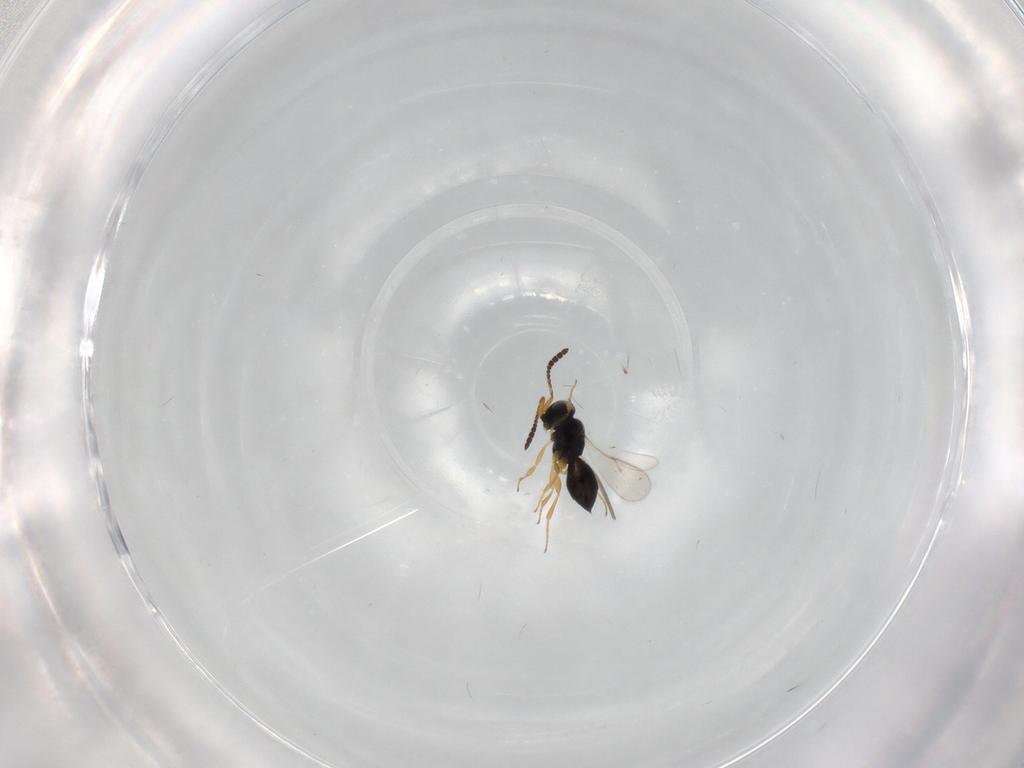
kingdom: Animalia
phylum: Arthropoda
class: Insecta
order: Hymenoptera
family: Scelionidae
